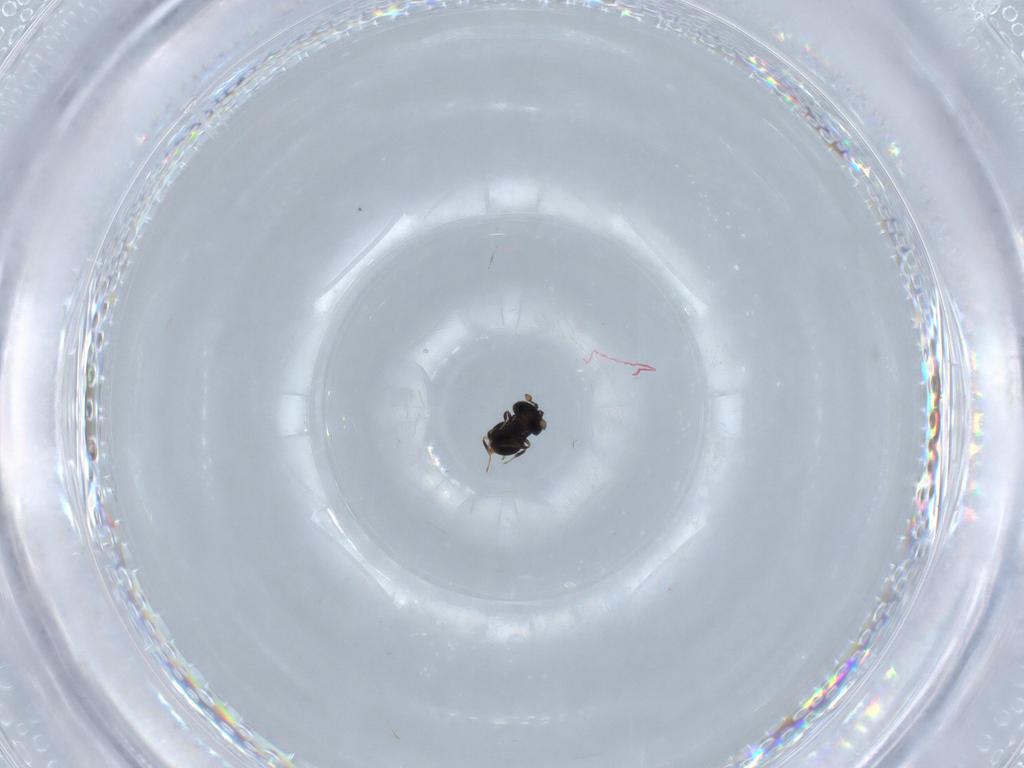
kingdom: Animalia
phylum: Arthropoda
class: Insecta
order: Hymenoptera
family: Scelionidae
